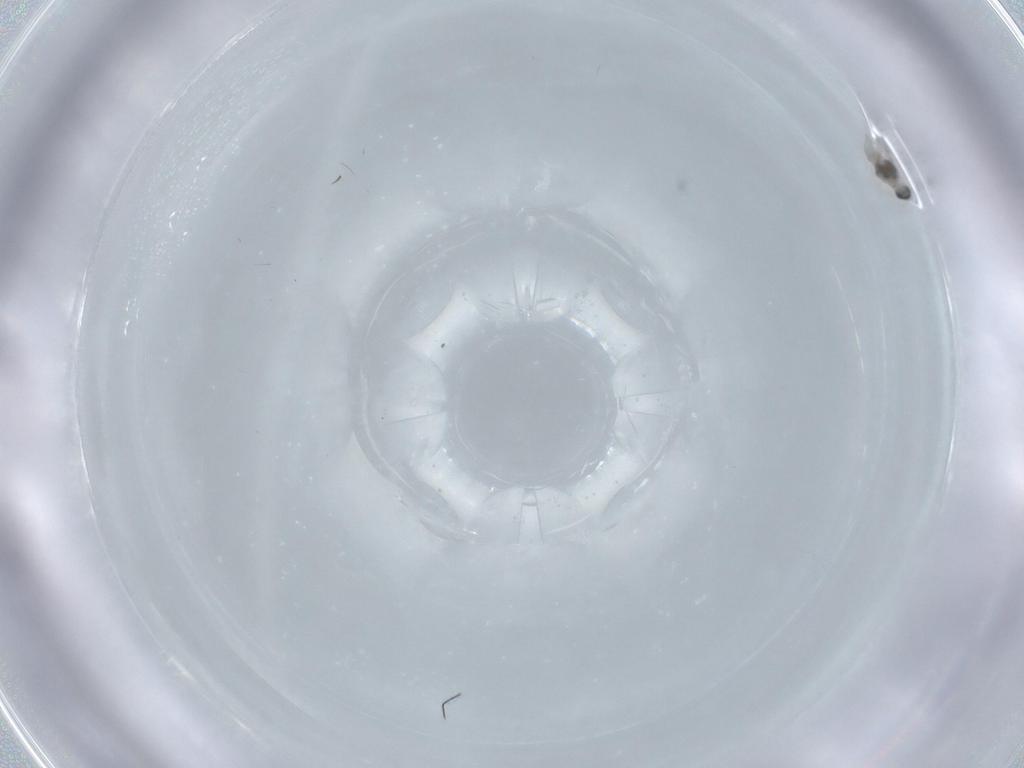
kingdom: Animalia
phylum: Arthropoda
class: Insecta
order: Diptera
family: Cecidomyiidae
